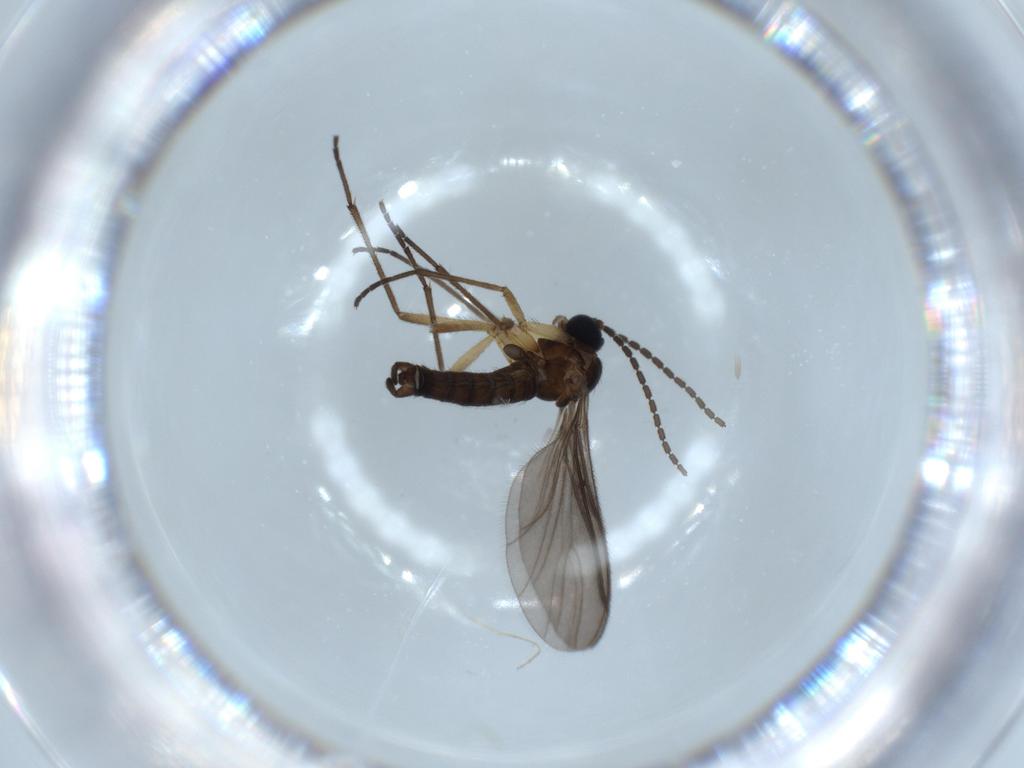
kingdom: Animalia
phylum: Arthropoda
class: Insecta
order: Diptera
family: Sciaridae
